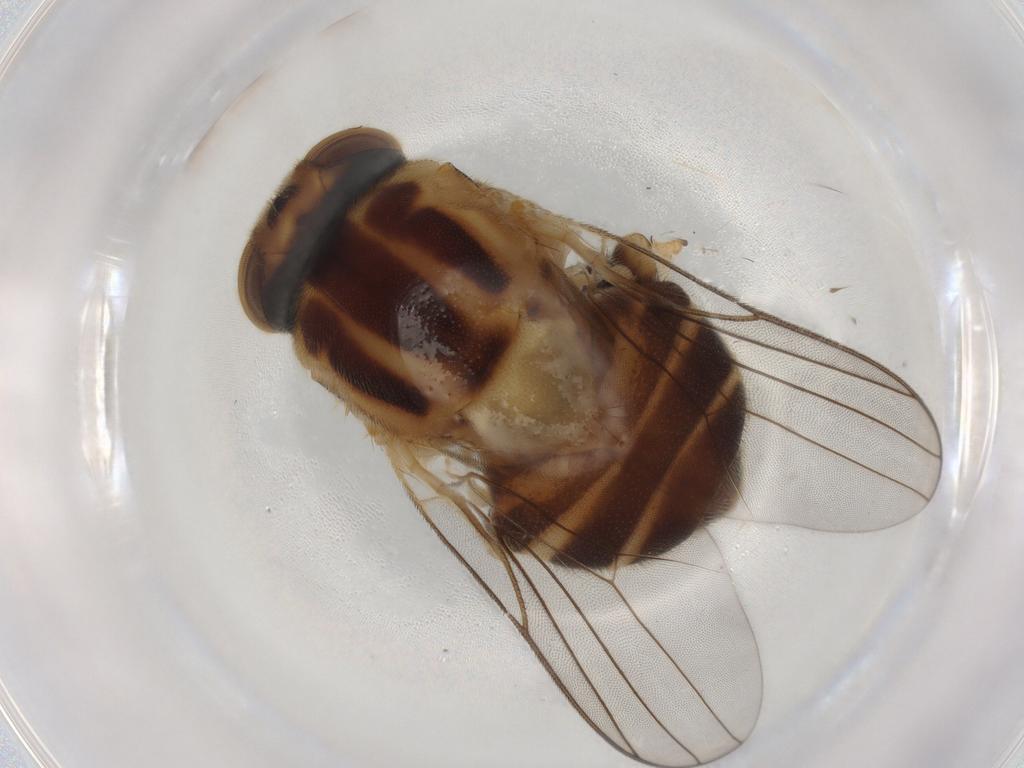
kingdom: Animalia
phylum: Arthropoda
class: Insecta
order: Diptera
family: Chloropidae
